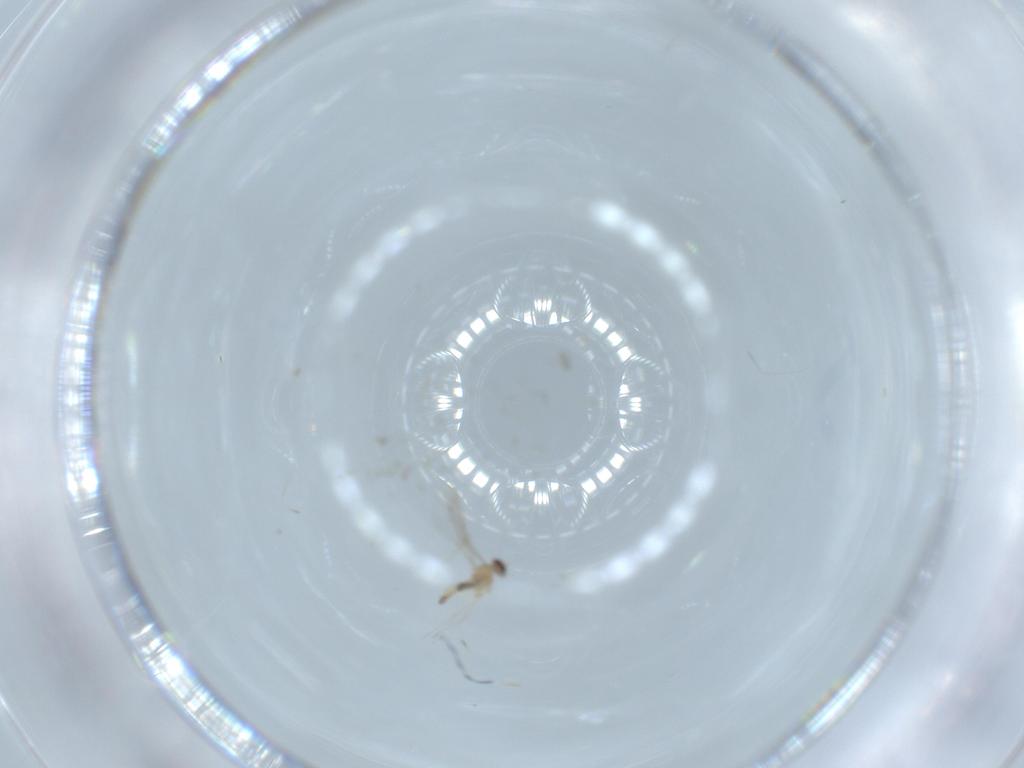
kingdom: Animalia
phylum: Arthropoda
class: Insecta
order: Diptera
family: Cecidomyiidae
